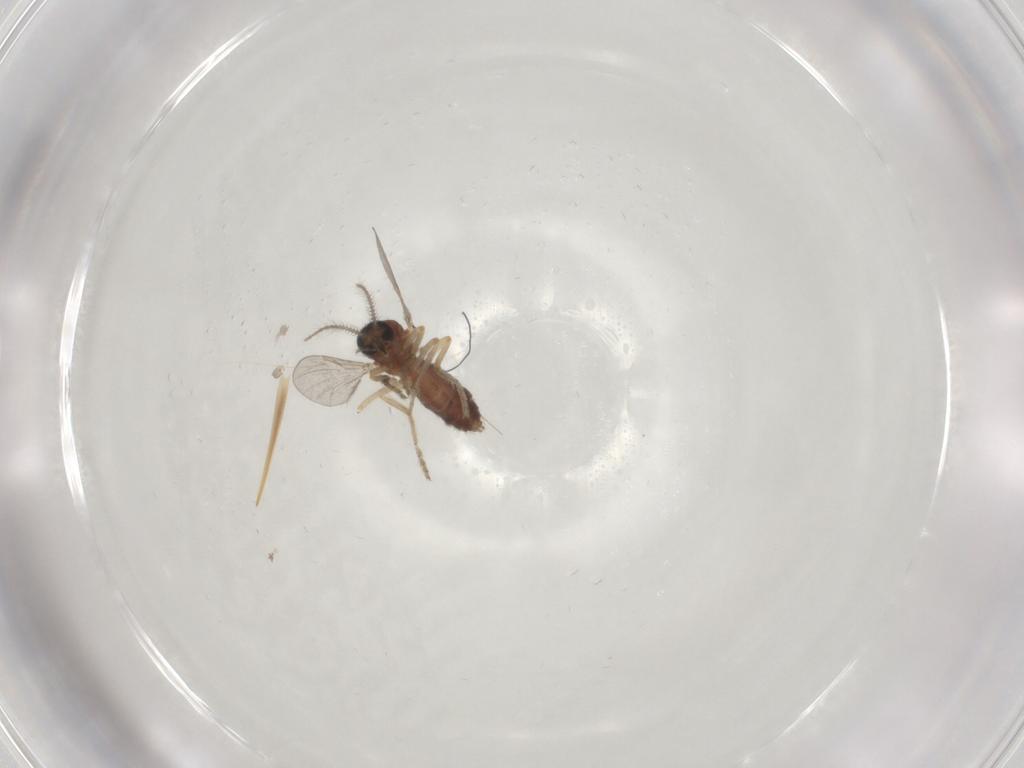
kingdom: Animalia
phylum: Arthropoda
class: Insecta
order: Diptera
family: Ceratopogonidae
